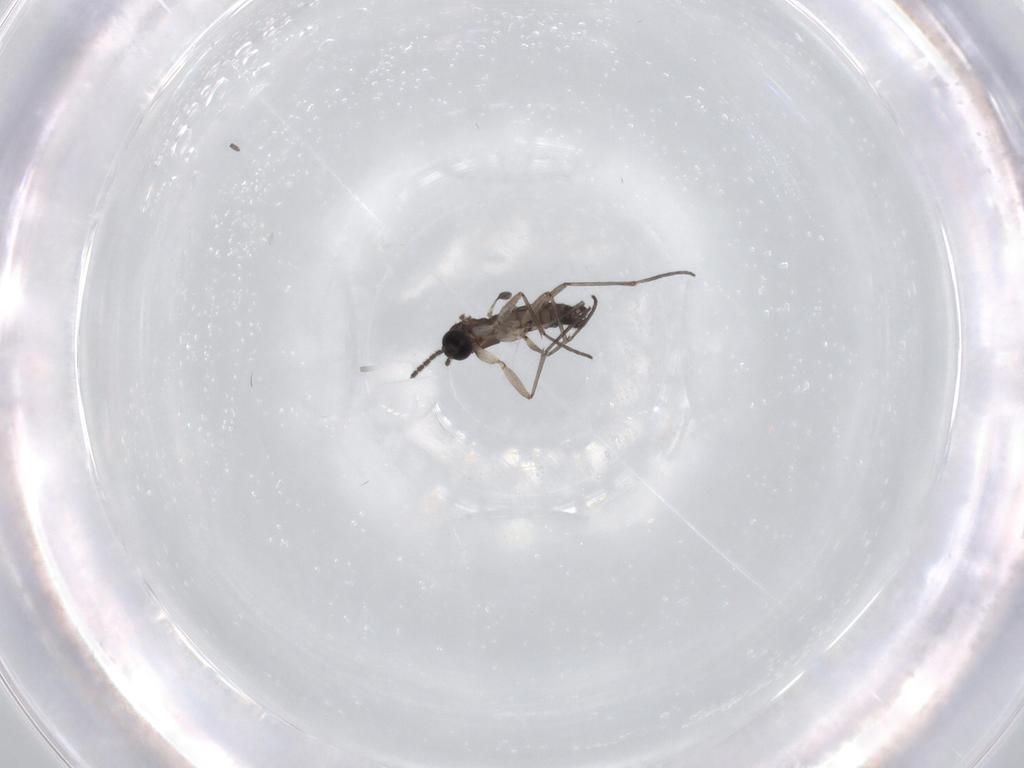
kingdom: Animalia
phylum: Arthropoda
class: Insecta
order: Diptera
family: Sciaridae
